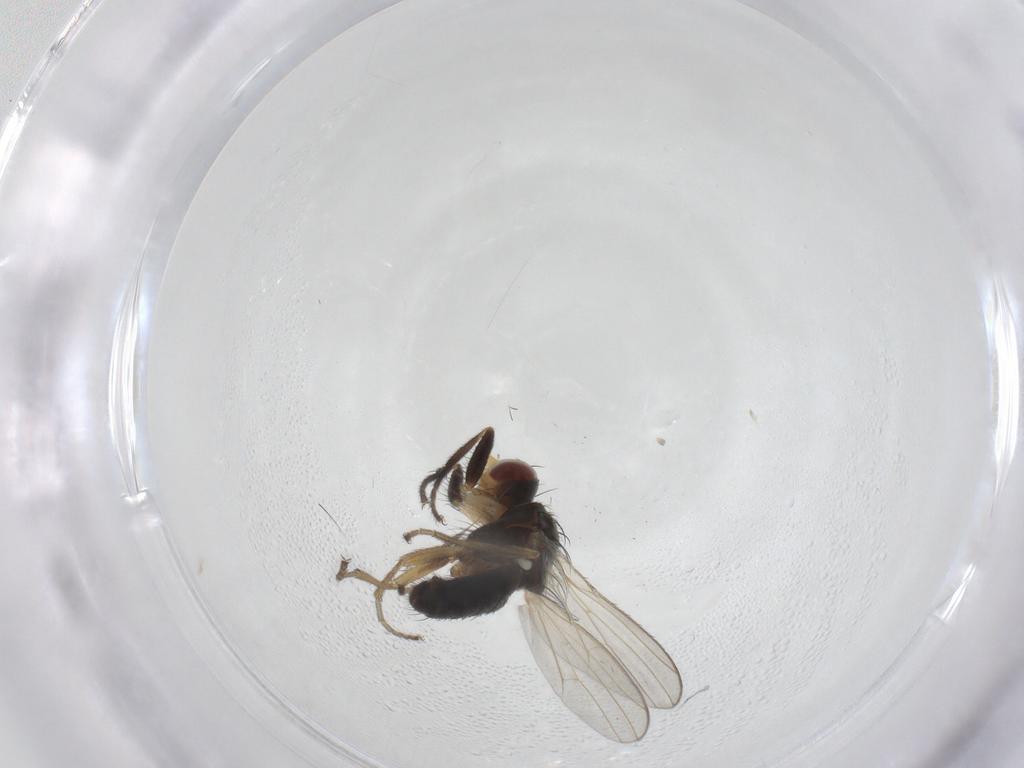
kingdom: Animalia
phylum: Arthropoda
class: Insecta
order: Diptera
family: Heleomyzidae
